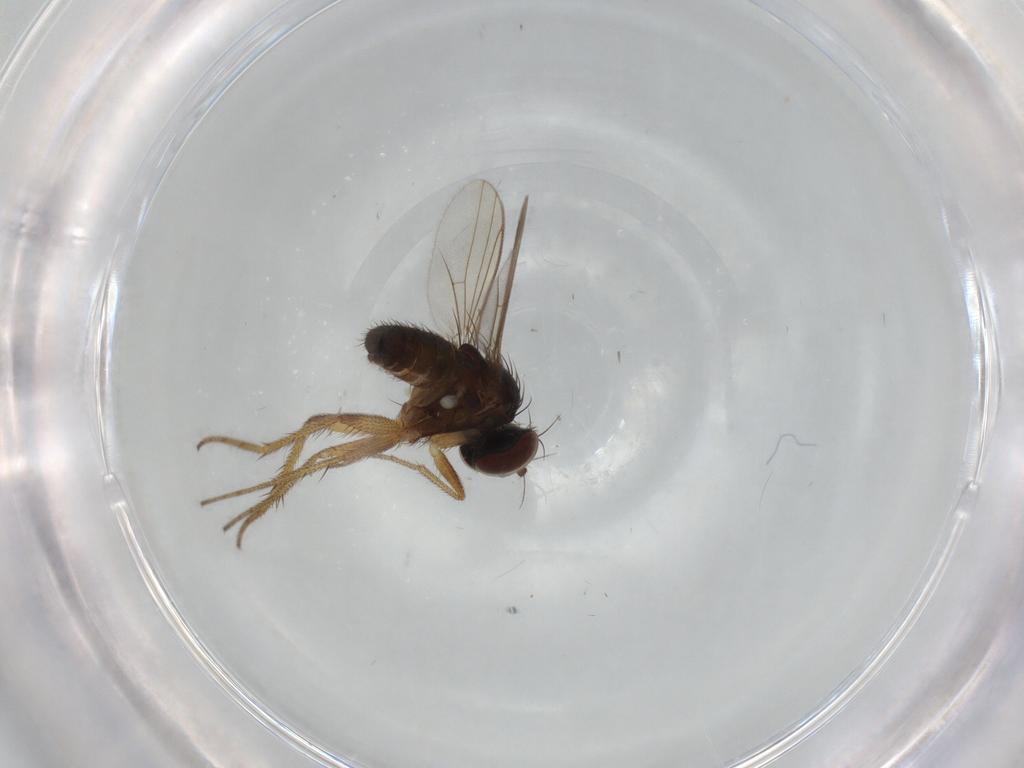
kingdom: Animalia
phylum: Arthropoda
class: Insecta
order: Diptera
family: Dolichopodidae
